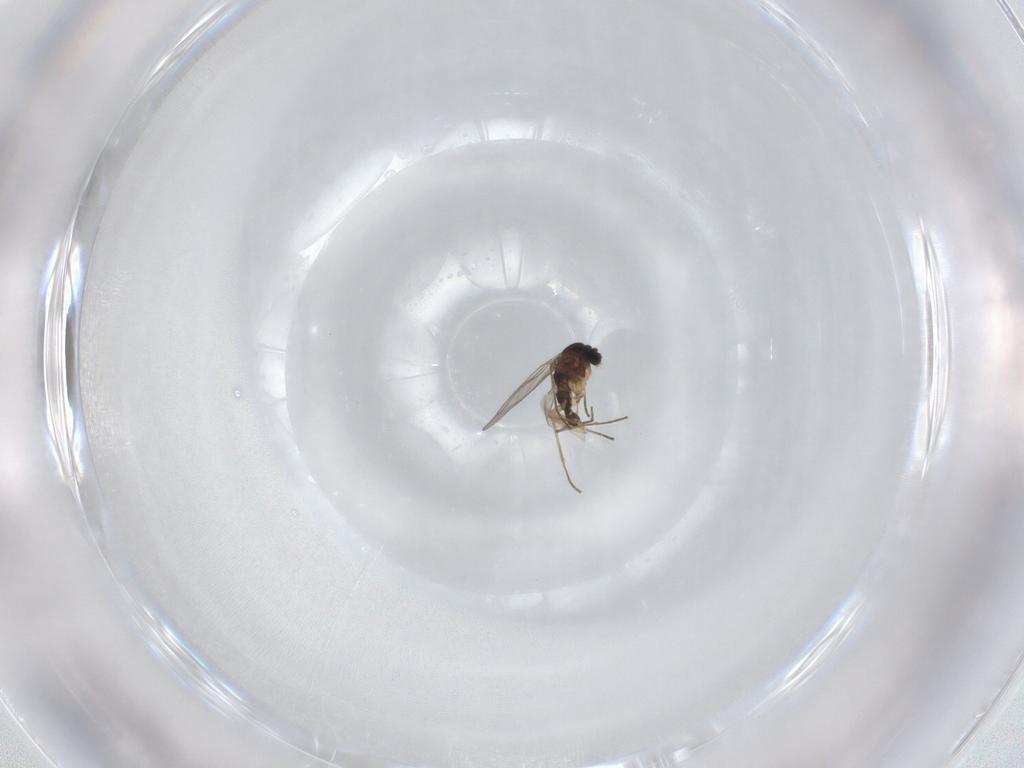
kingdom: Animalia
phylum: Arthropoda
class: Insecta
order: Diptera
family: Sciaridae
